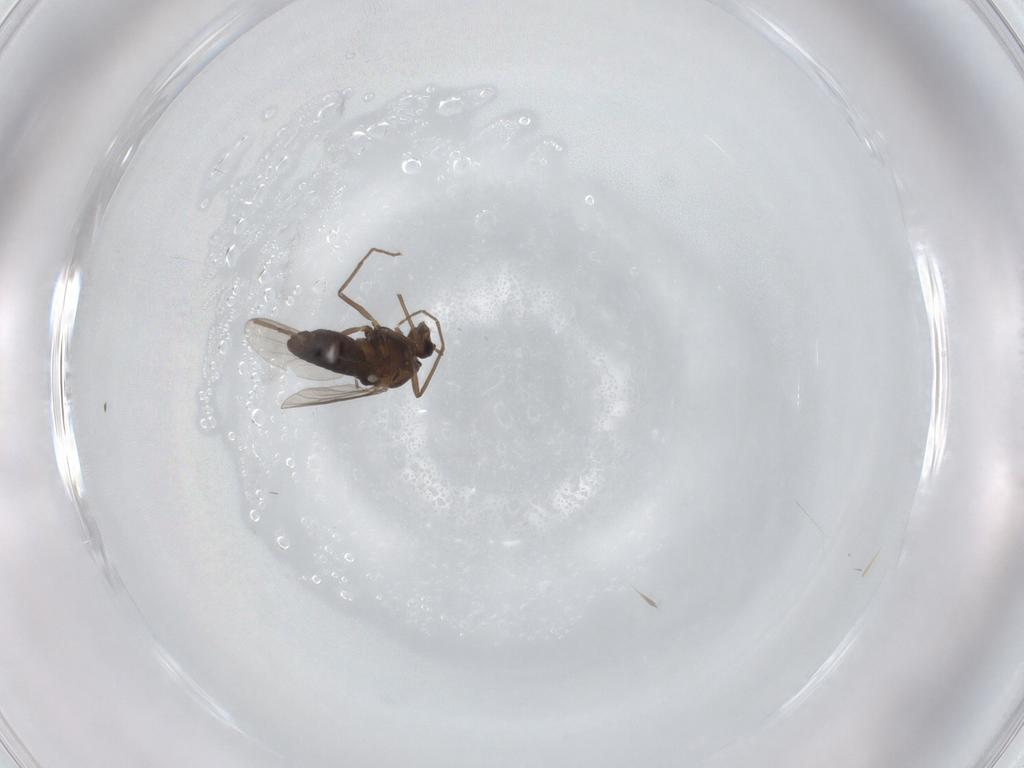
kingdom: Animalia
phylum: Arthropoda
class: Insecta
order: Diptera
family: Chironomidae
